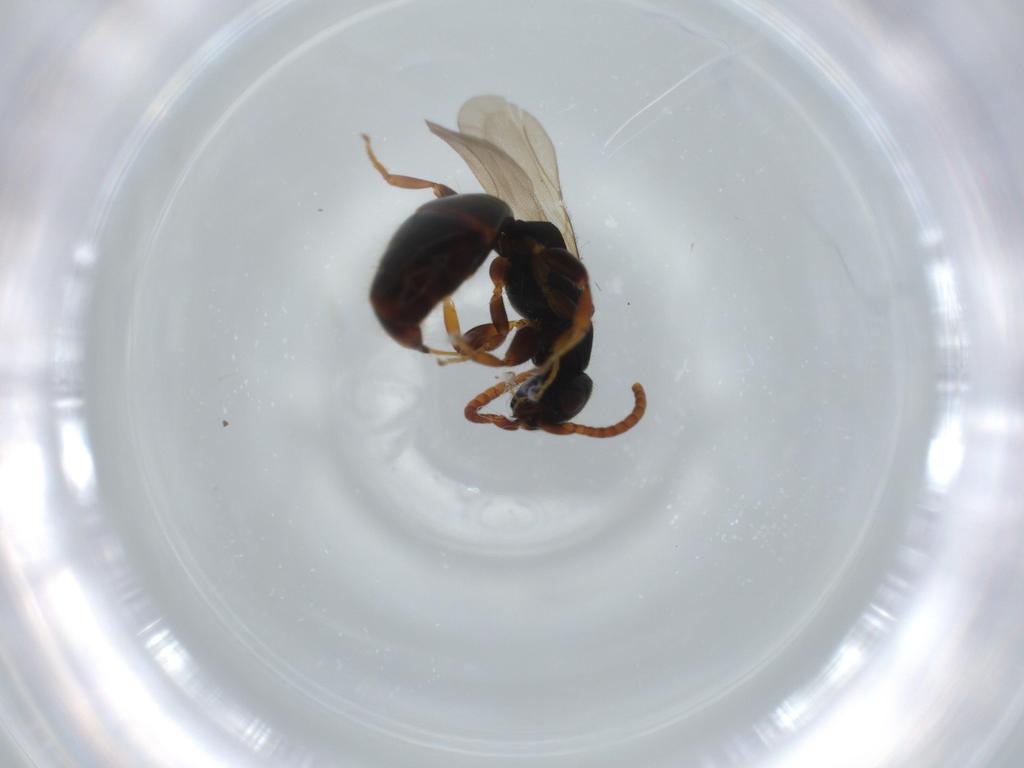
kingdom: Animalia
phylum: Arthropoda
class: Insecta
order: Hymenoptera
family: Bethylidae
